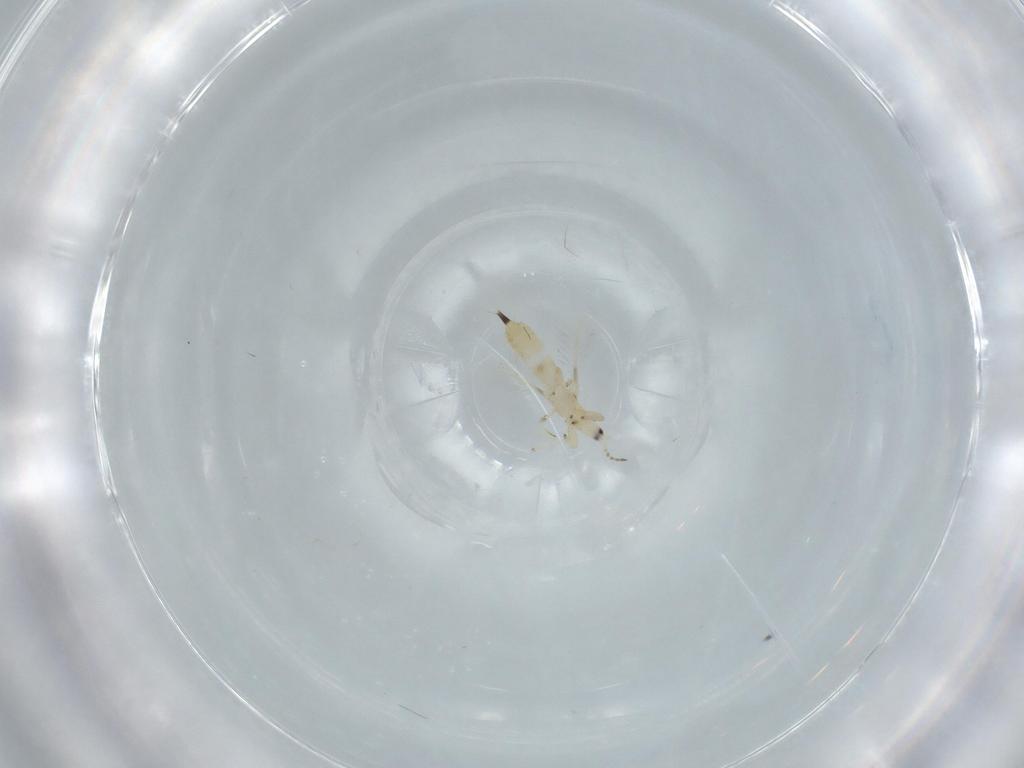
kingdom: Animalia
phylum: Arthropoda
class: Insecta
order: Thysanoptera
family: Phlaeothripidae
